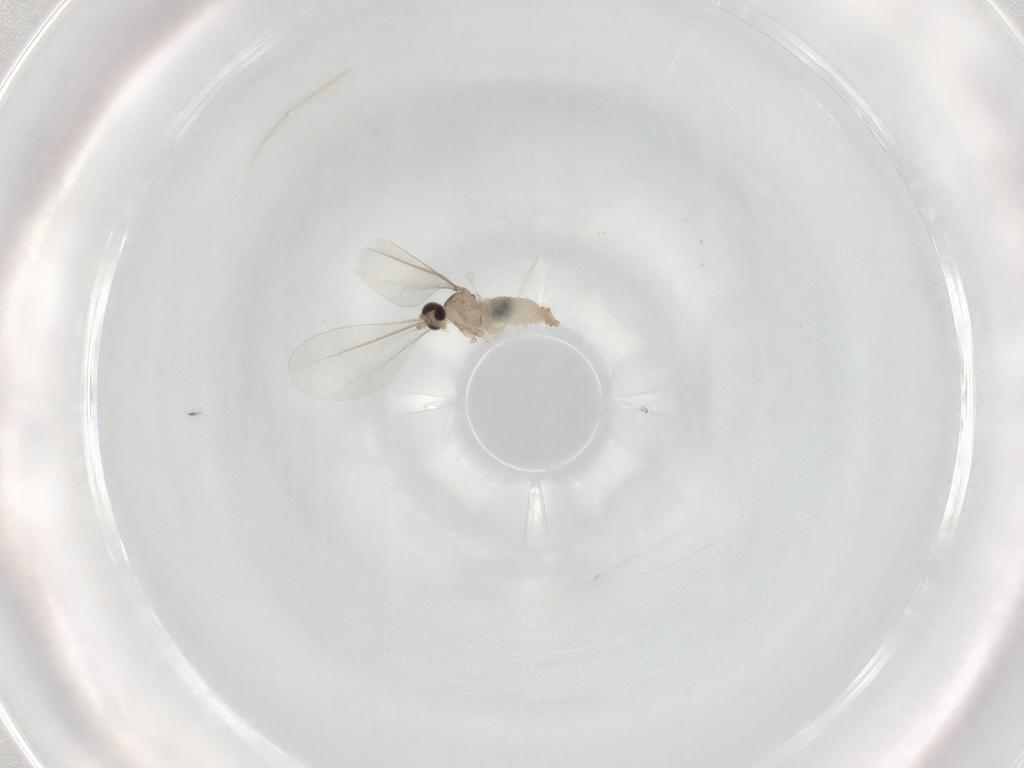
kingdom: Animalia
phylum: Arthropoda
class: Insecta
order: Diptera
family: Cecidomyiidae
